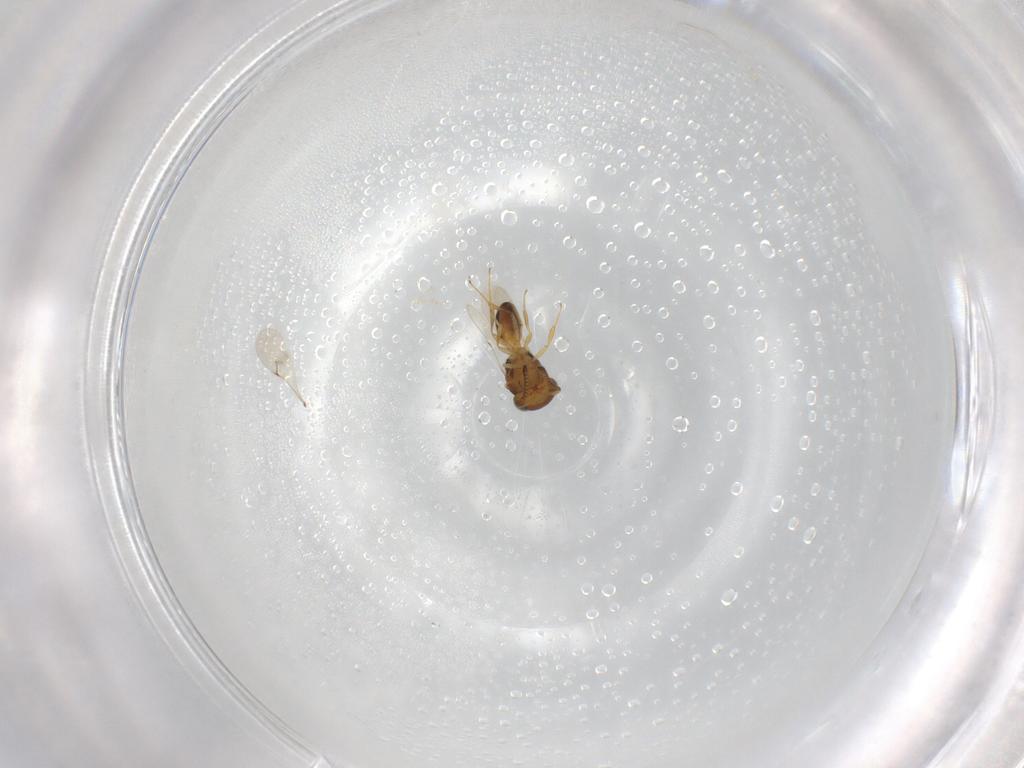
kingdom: Animalia
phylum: Arthropoda
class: Insecta
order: Hymenoptera
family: Scelionidae
